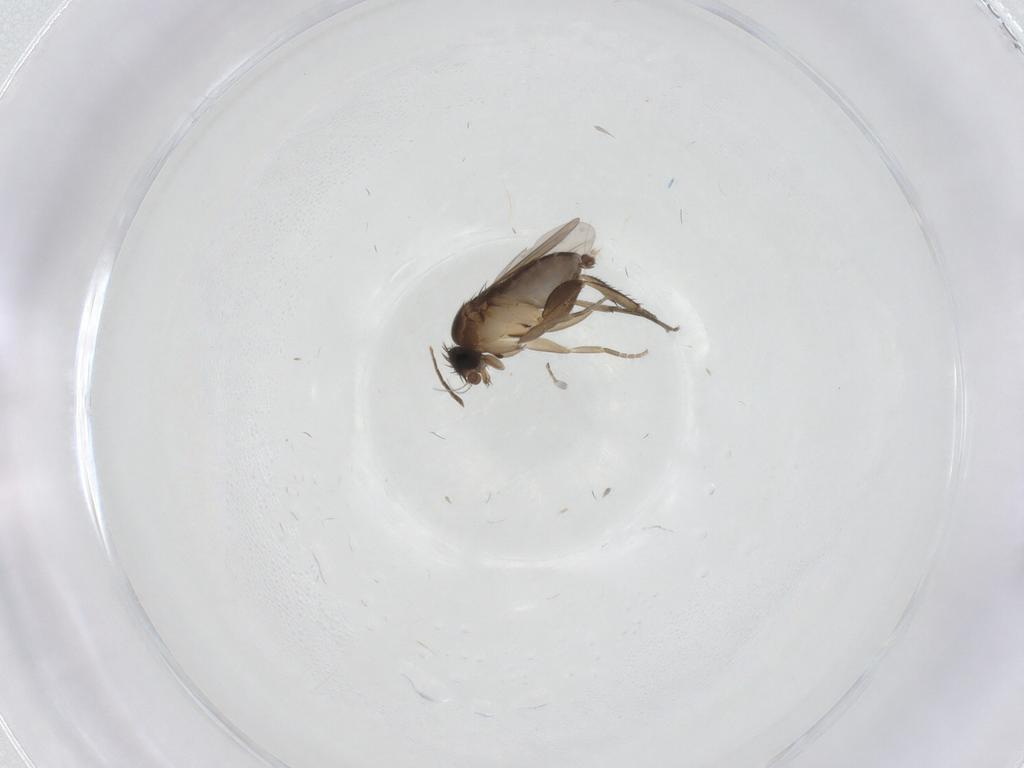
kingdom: Animalia
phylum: Arthropoda
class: Insecta
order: Diptera
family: Phoridae
